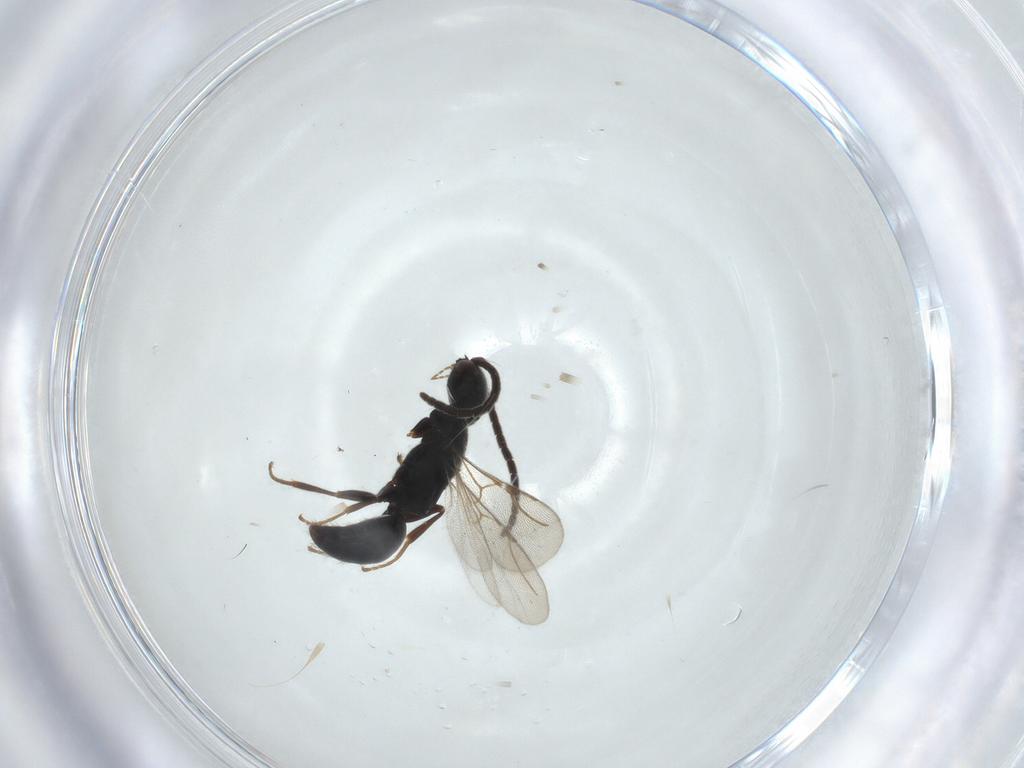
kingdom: Animalia
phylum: Arthropoda
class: Insecta
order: Hymenoptera
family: Bethylidae
